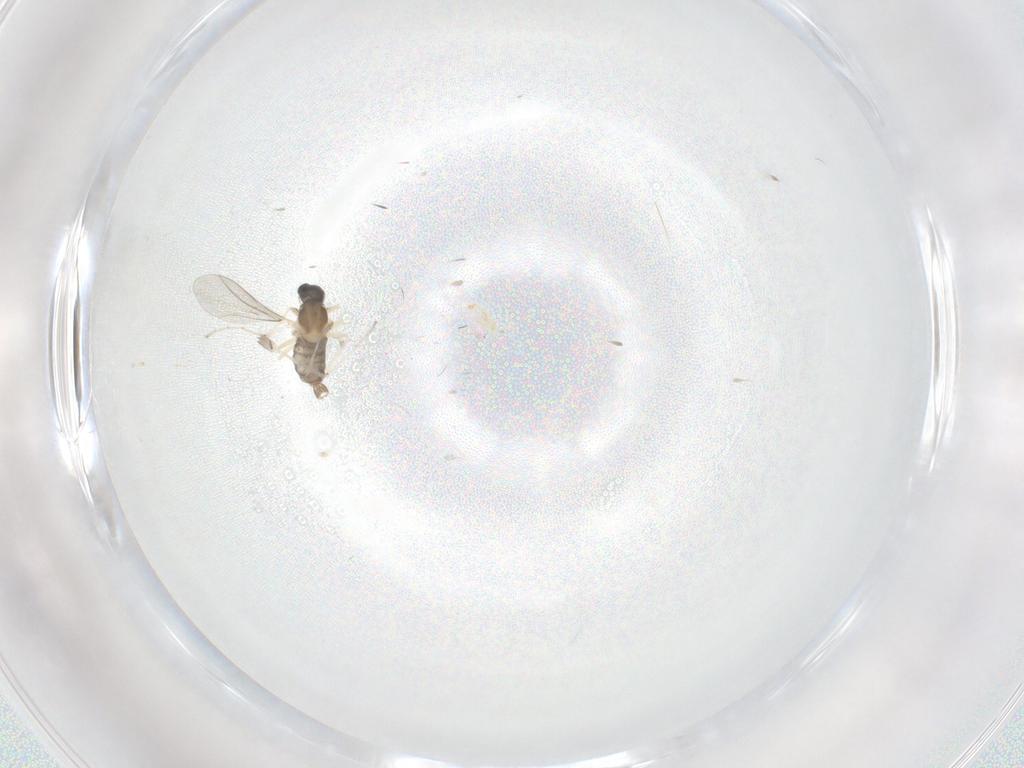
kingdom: Animalia
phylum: Arthropoda
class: Insecta
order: Diptera
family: Cecidomyiidae
